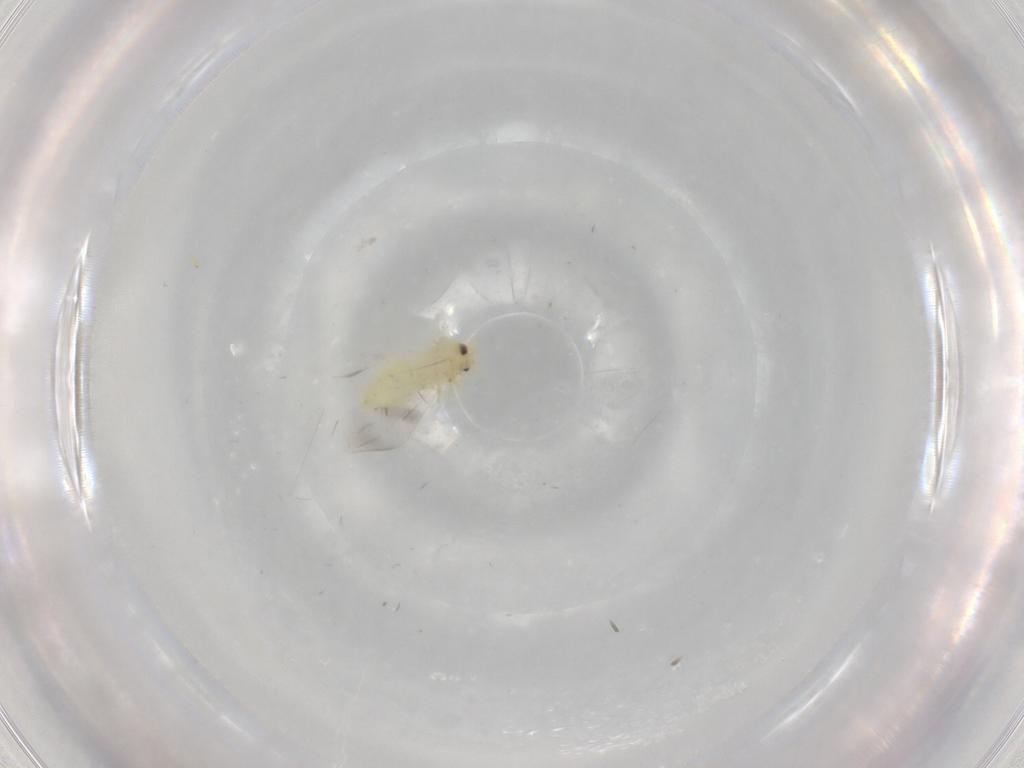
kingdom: Animalia
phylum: Arthropoda
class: Insecta
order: Hemiptera
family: Aleyrodidae
